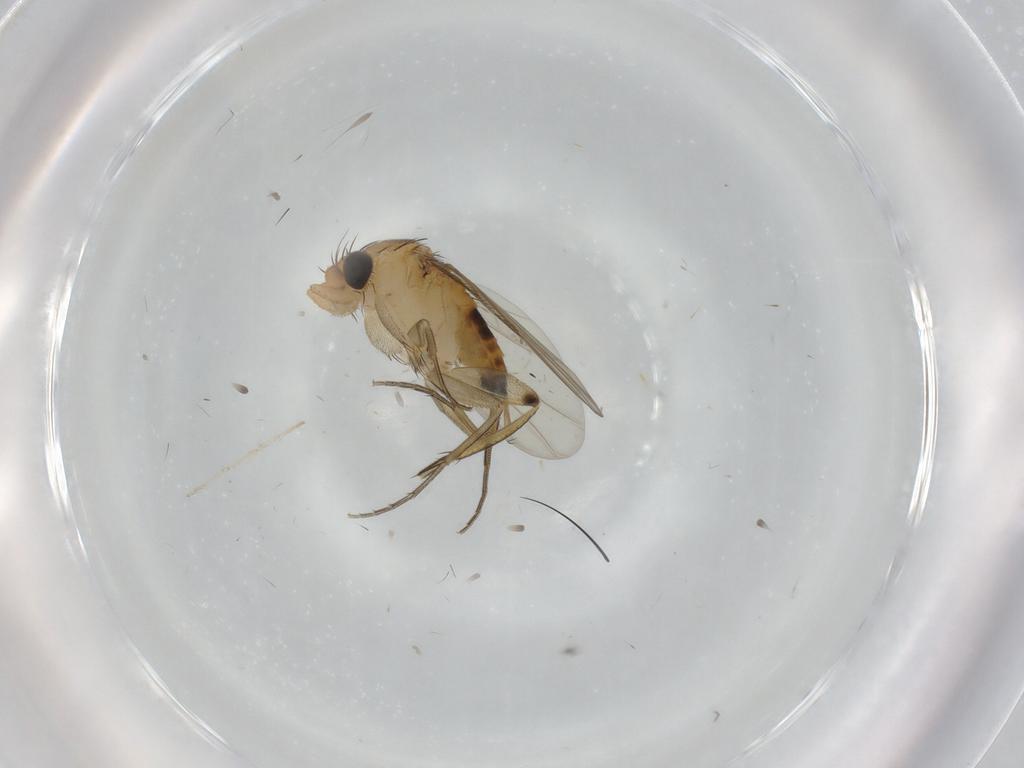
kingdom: Animalia
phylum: Arthropoda
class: Insecta
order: Diptera
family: Phoridae
